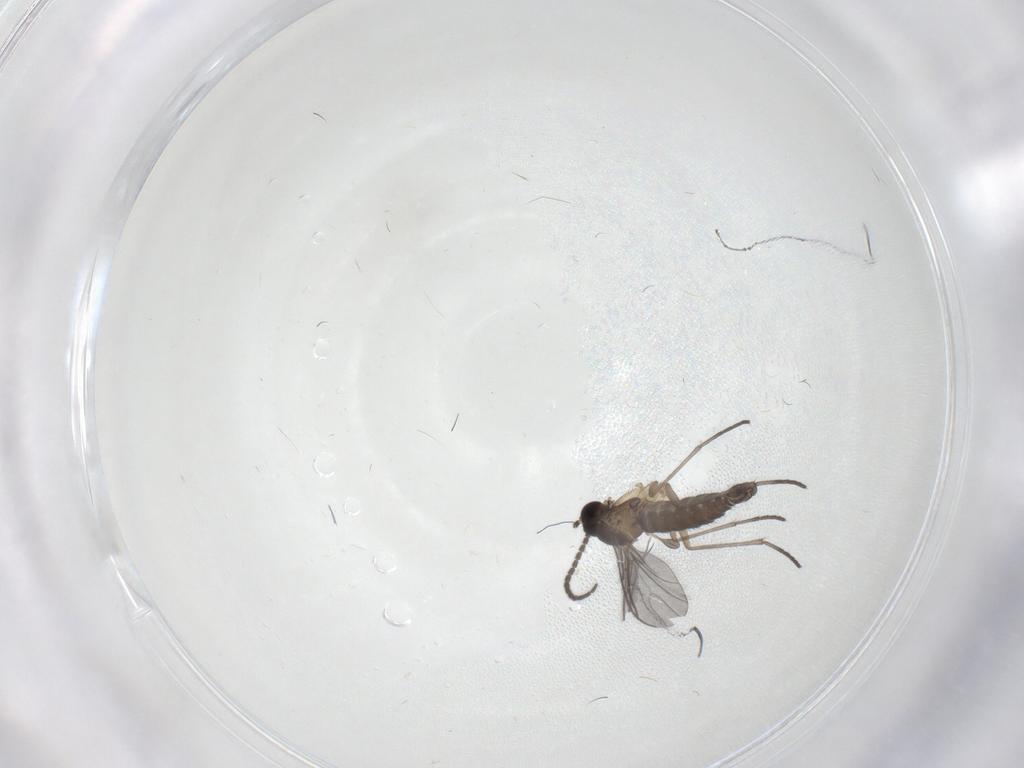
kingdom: Animalia
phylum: Arthropoda
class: Insecta
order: Diptera
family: Sciaridae
